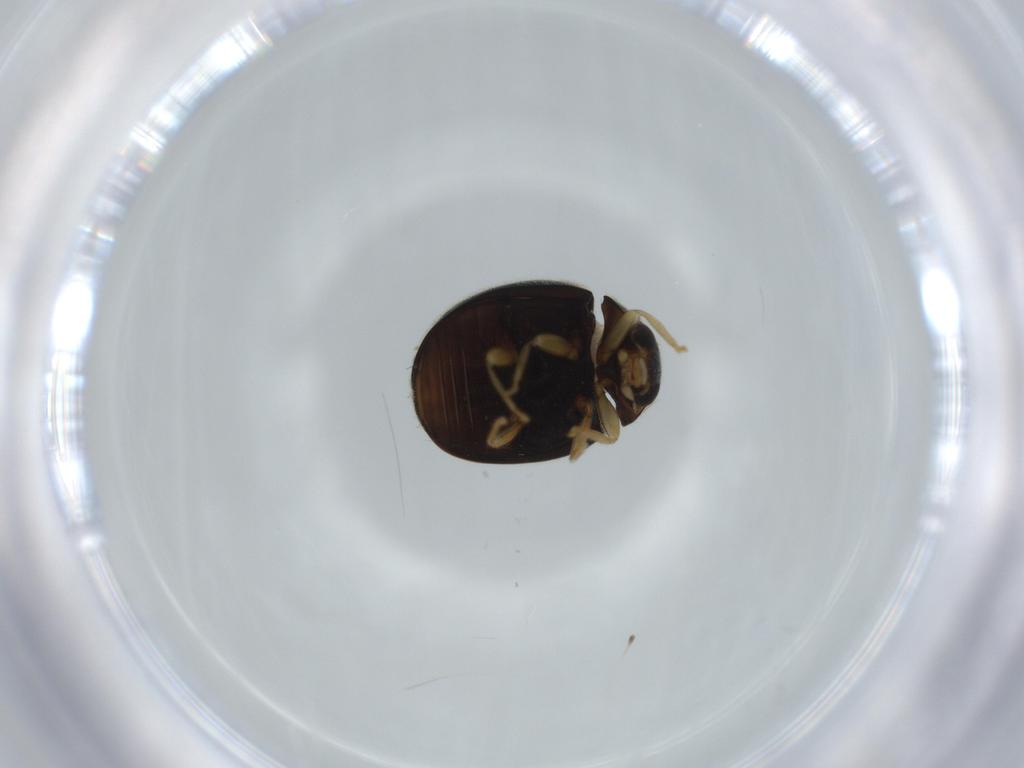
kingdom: Animalia
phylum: Arthropoda
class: Insecta
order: Coleoptera
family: Coccinellidae
